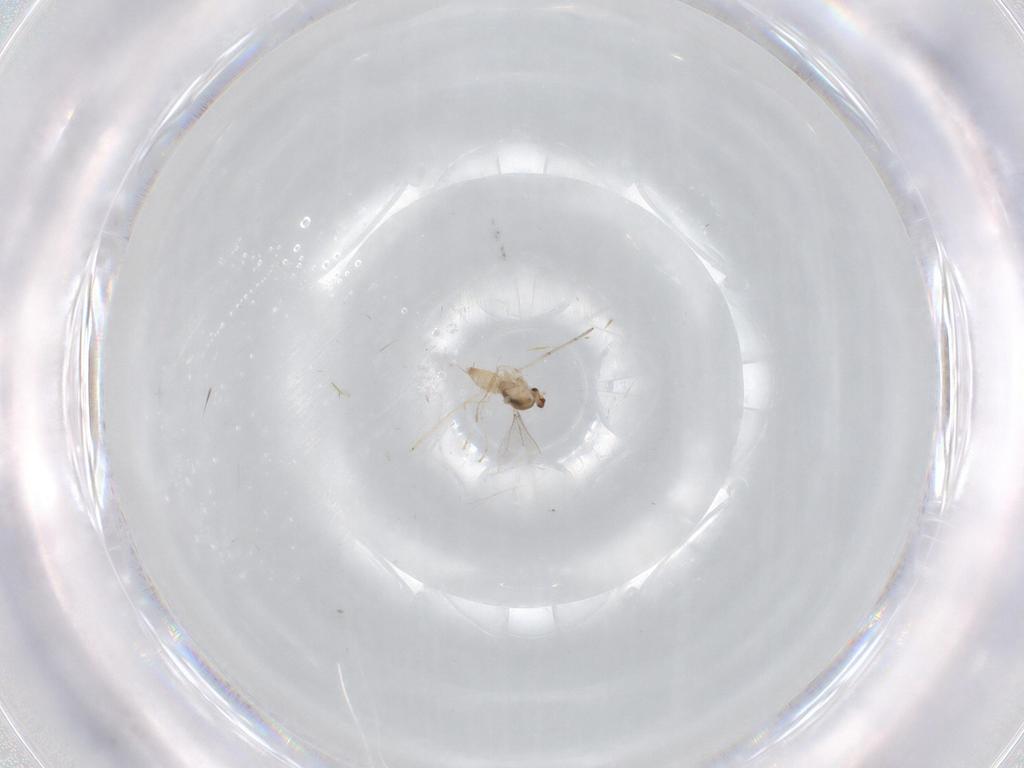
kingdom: Animalia
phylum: Arthropoda
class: Insecta
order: Diptera
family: Cecidomyiidae
